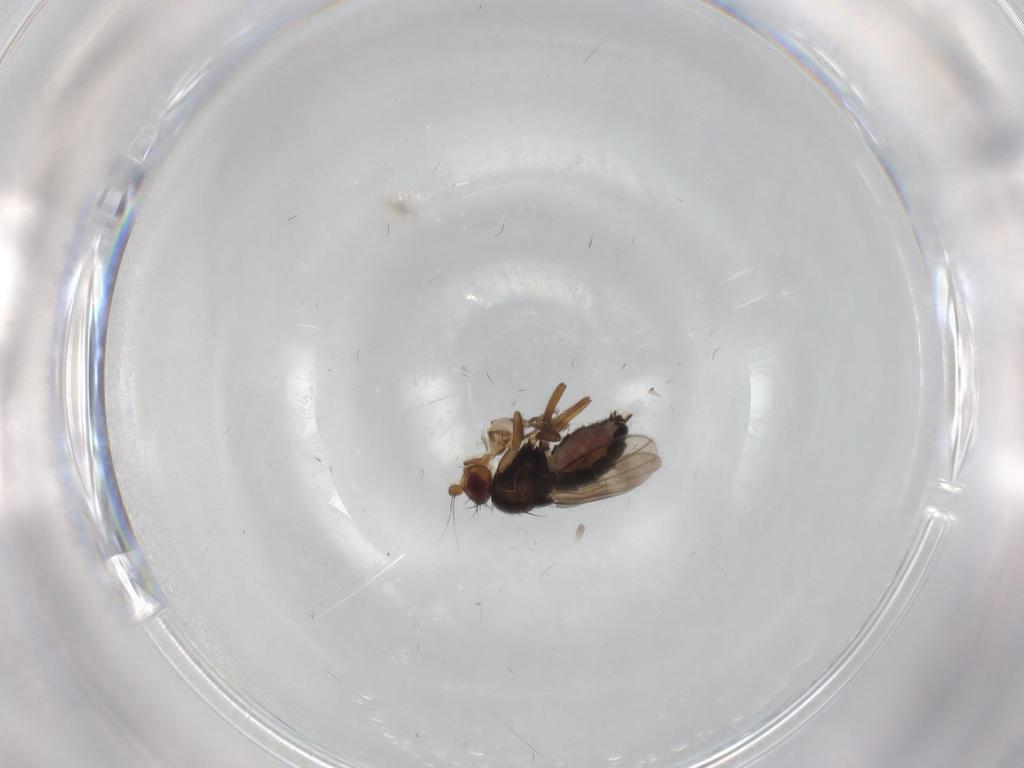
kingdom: Animalia
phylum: Arthropoda
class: Insecta
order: Diptera
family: Sphaeroceridae
